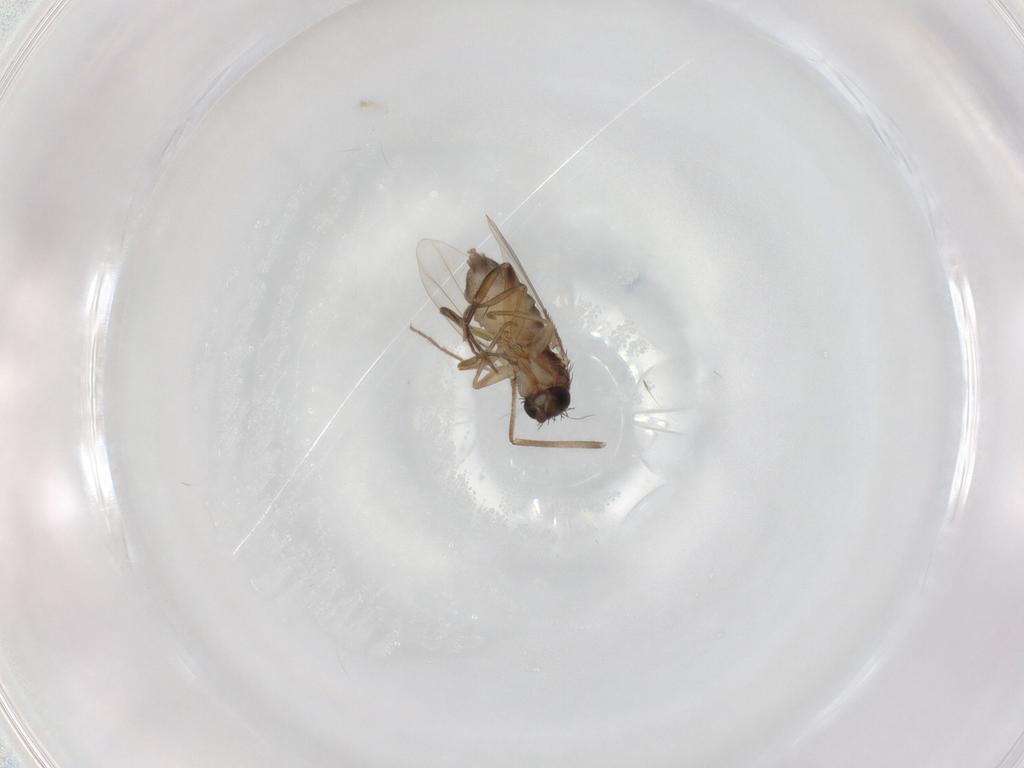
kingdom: Animalia
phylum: Arthropoda
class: Insecta
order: Diptera
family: Phoridae
